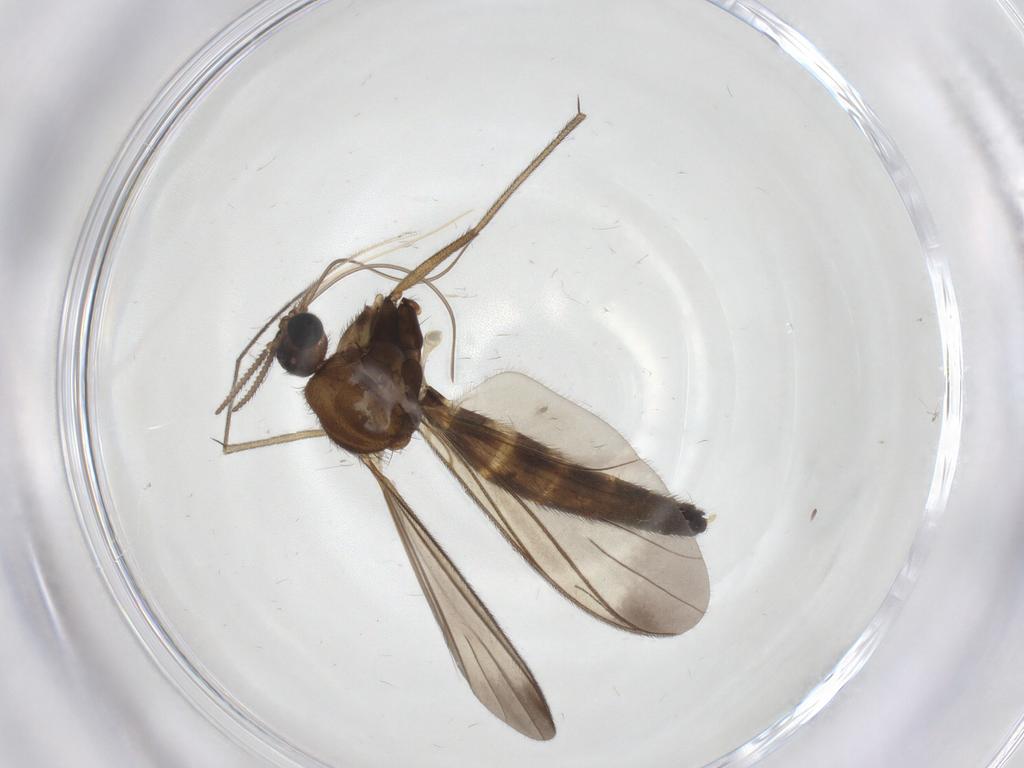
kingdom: Animalia
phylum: Arthropoda
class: Insecta
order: Diptera
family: Keroplatidae
